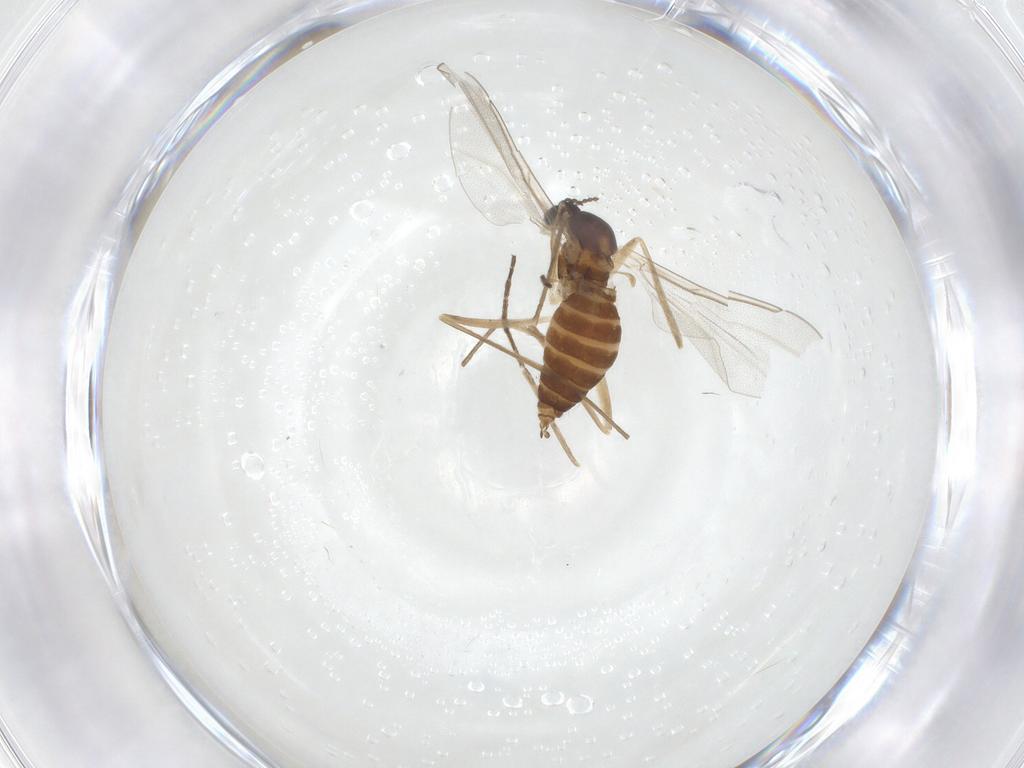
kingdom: Animalia
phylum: Arthropoda
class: Insecta
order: Diptera
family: Cecidomyiidae
